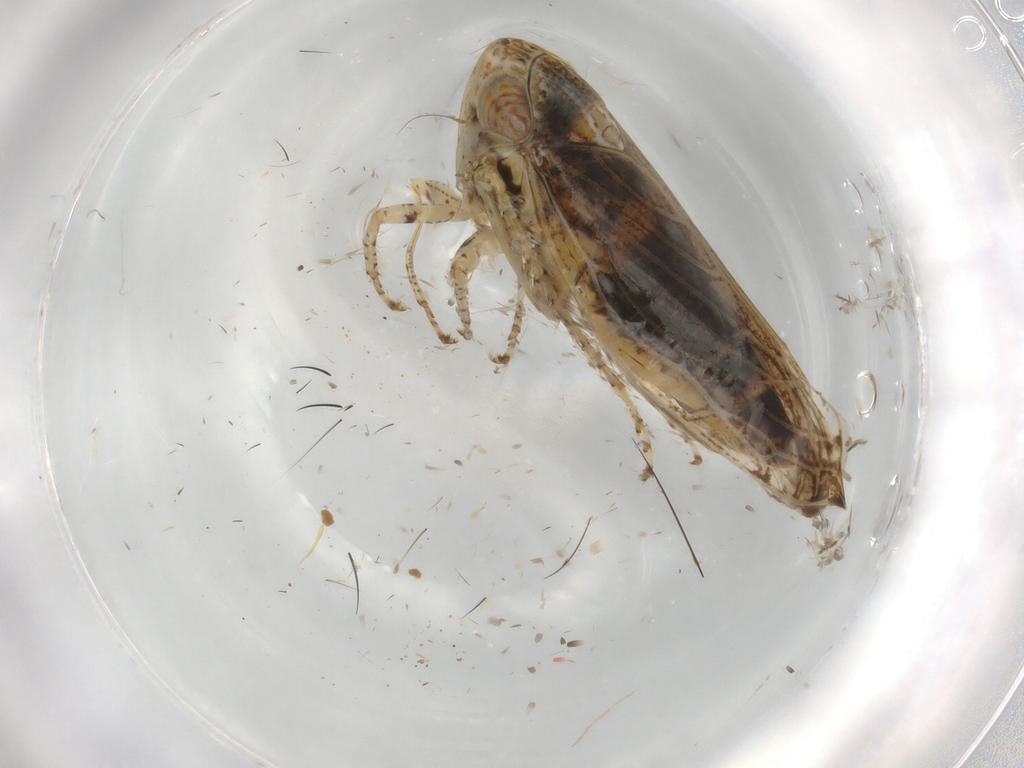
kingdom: Animalia
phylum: Arthropoda
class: Insecta
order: Hemiptera
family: Cicadellidae
